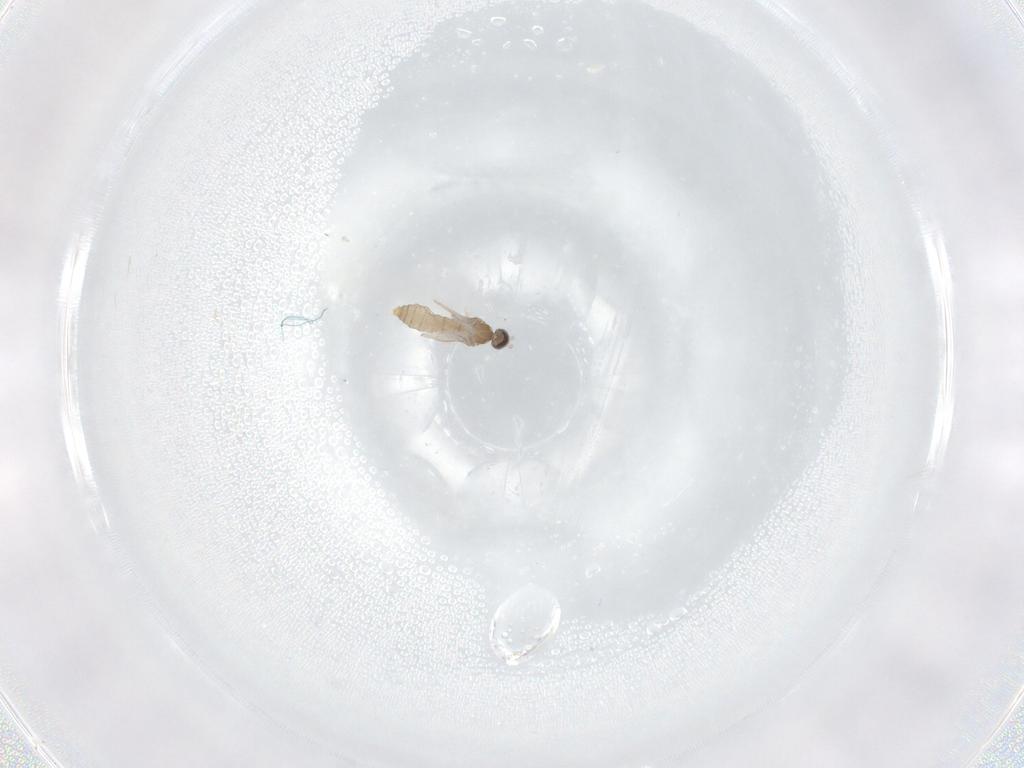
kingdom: Animalia
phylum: Arthropoda
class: Insecta
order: Diptera
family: Cecidomyiidae
